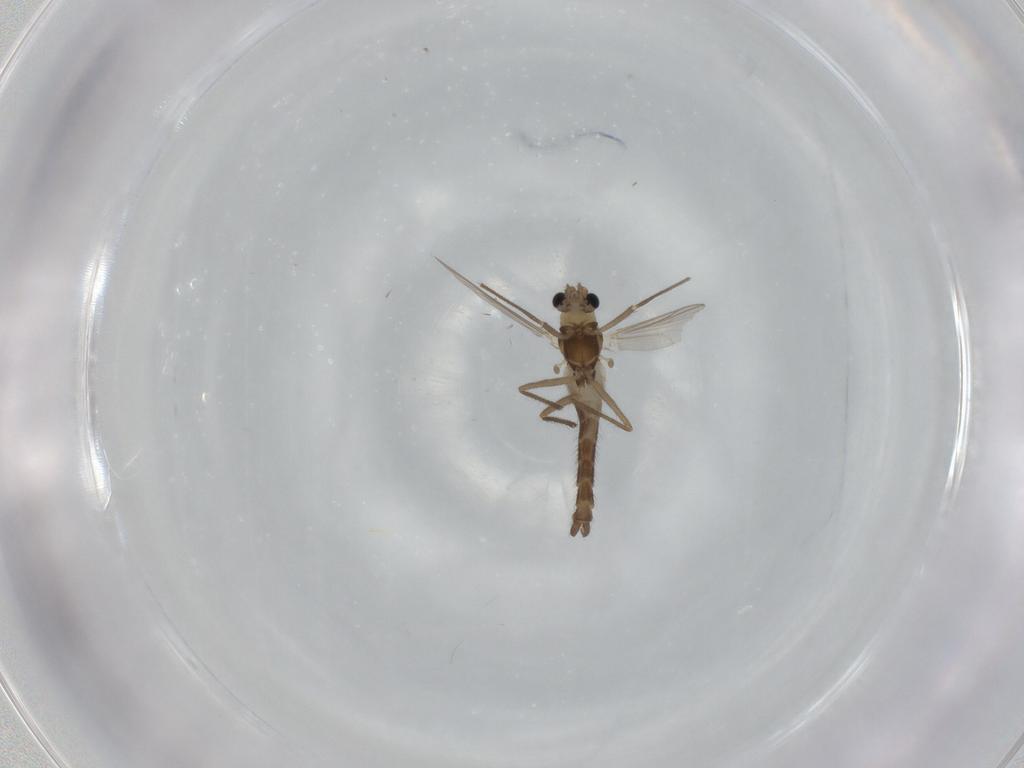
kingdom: Animalia
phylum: Arthropoda
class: Insecta
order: Diptera
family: Chironomidae
